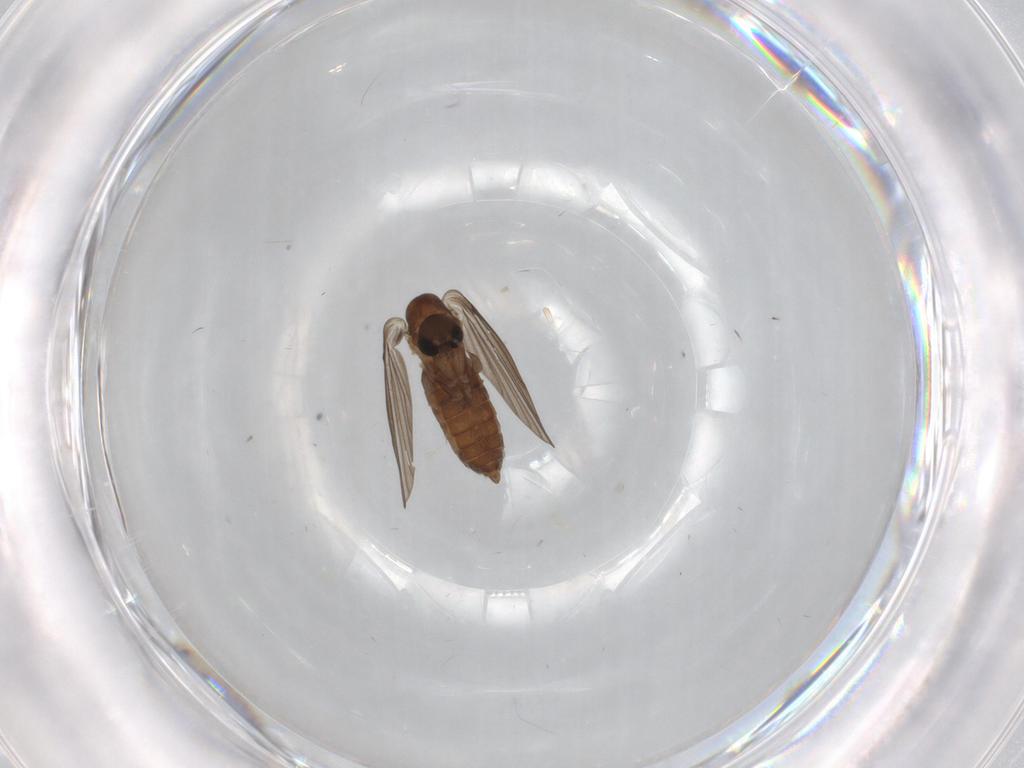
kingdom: Animalia
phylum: Arthropoda
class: Insecta
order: Diptera
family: Psychodidae
